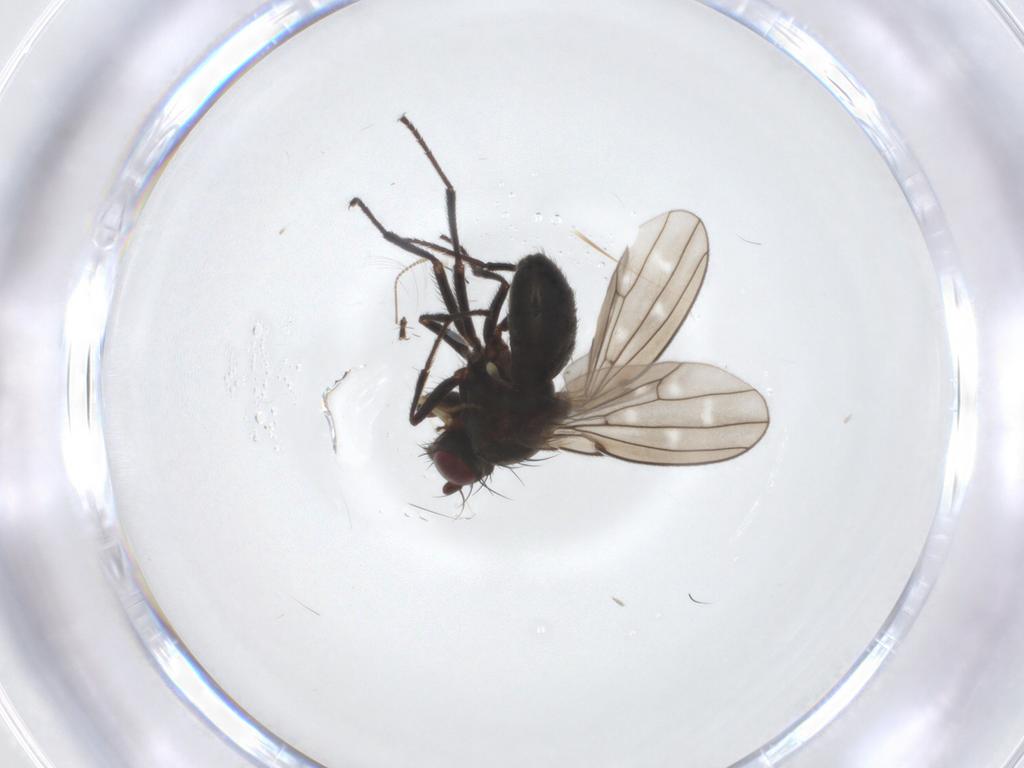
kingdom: Animalia
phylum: Arthropoda
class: Insecta
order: Diptera
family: Ephydridae
